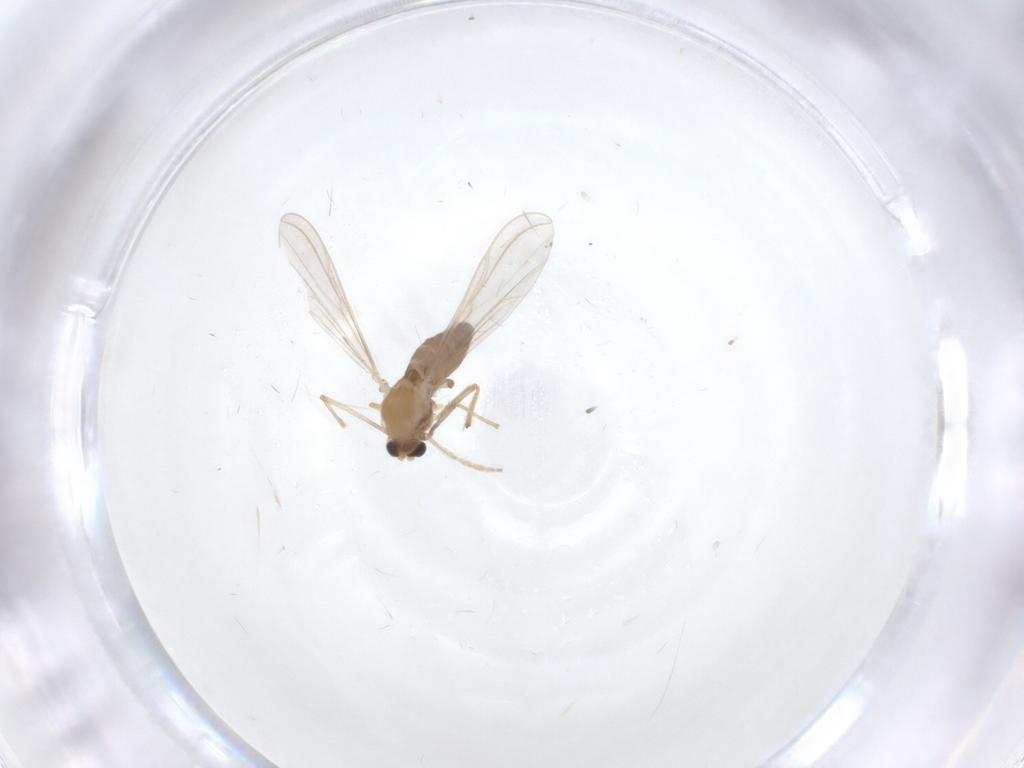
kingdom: Animalia
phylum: Arthropoda
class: Insecta
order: Diptera
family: Chironomidae
